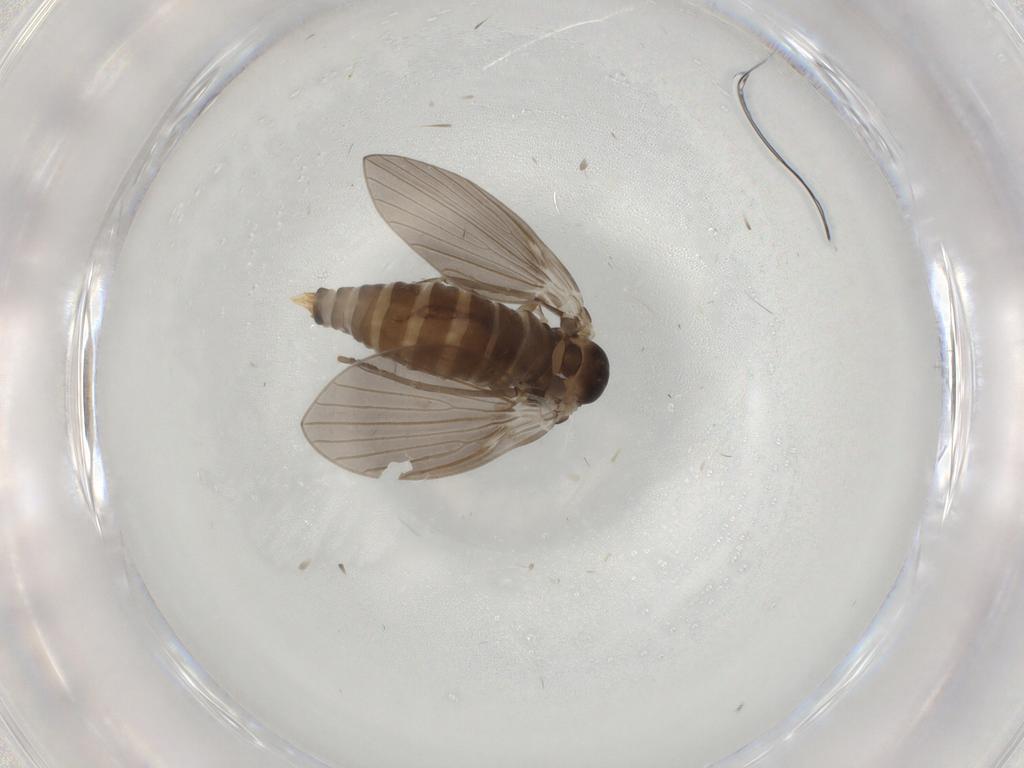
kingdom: Animalia
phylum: Arthropoda
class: Insecta
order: Diptera
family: Psychodidae
